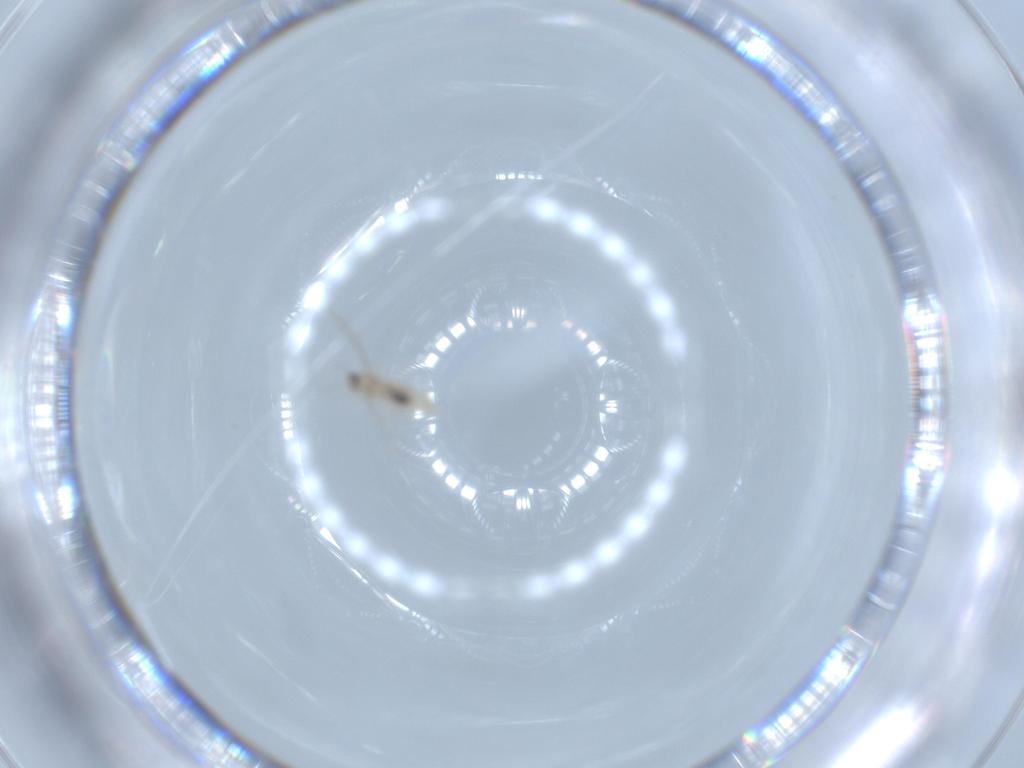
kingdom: Animalia
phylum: Arthropoda
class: Insecta
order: Diptera
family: Cecidomyiidae
